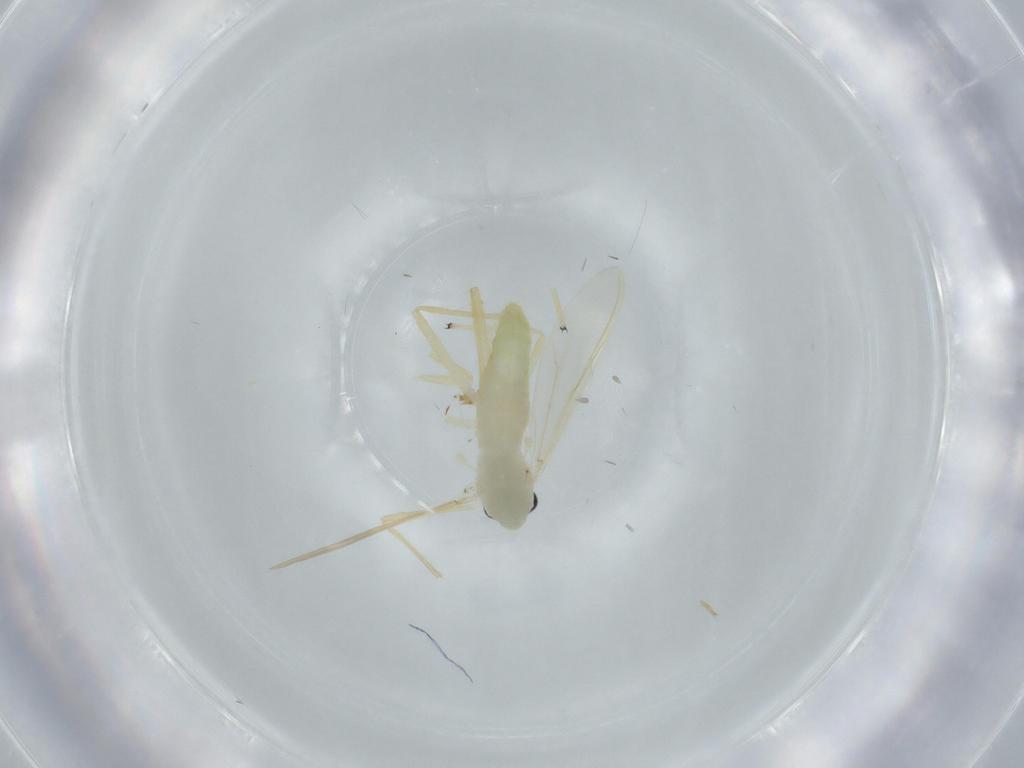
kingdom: Animalia
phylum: Arthropoda
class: Insecta
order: Diptera
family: Chironomidae
